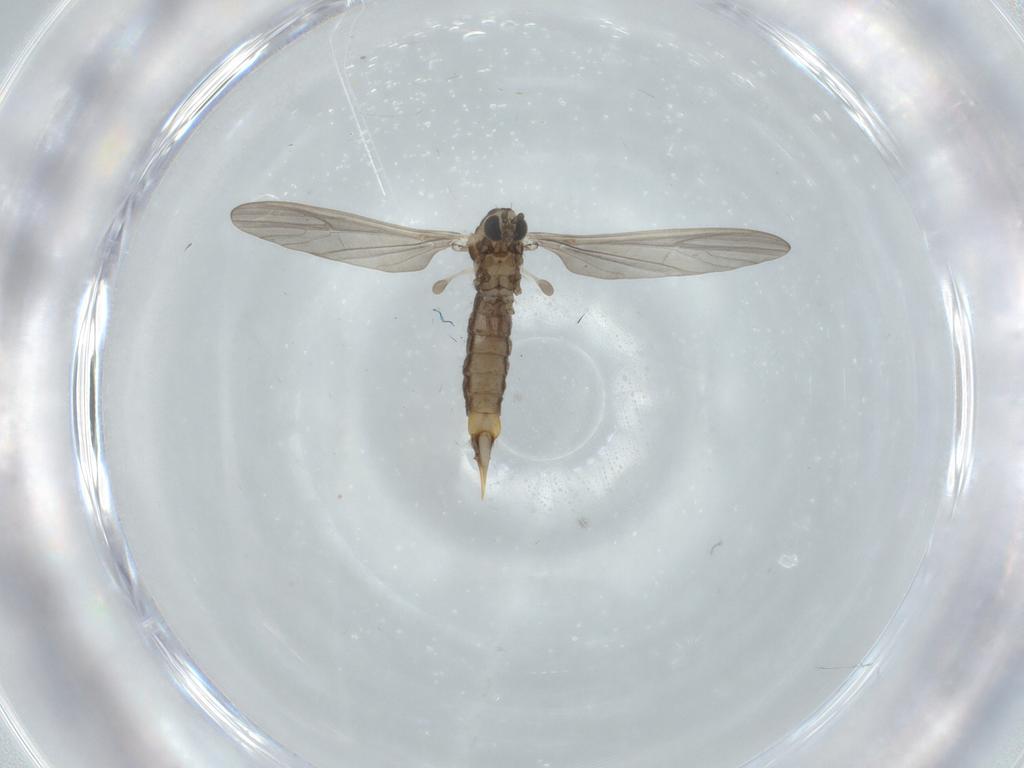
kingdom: Animalia
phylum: Arthropoda
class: Insecta
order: Diptera
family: Limoniidae
